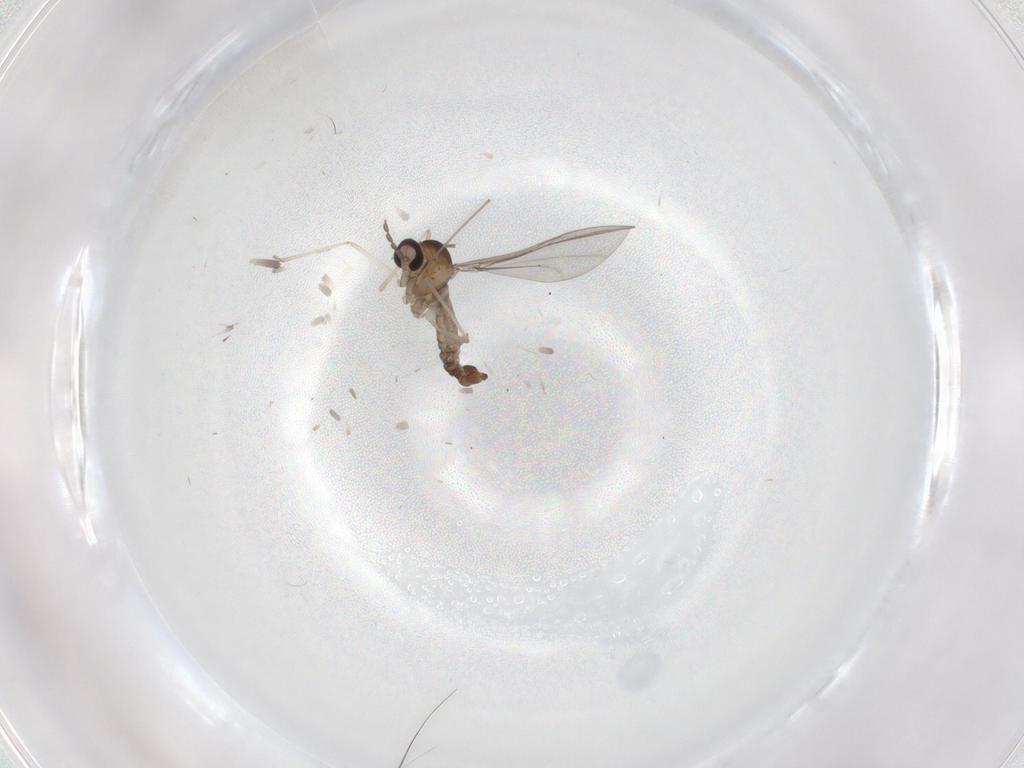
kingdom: Animalia
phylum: Arthropoda
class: Insecta
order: Diptera
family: Cecidomyiidae
